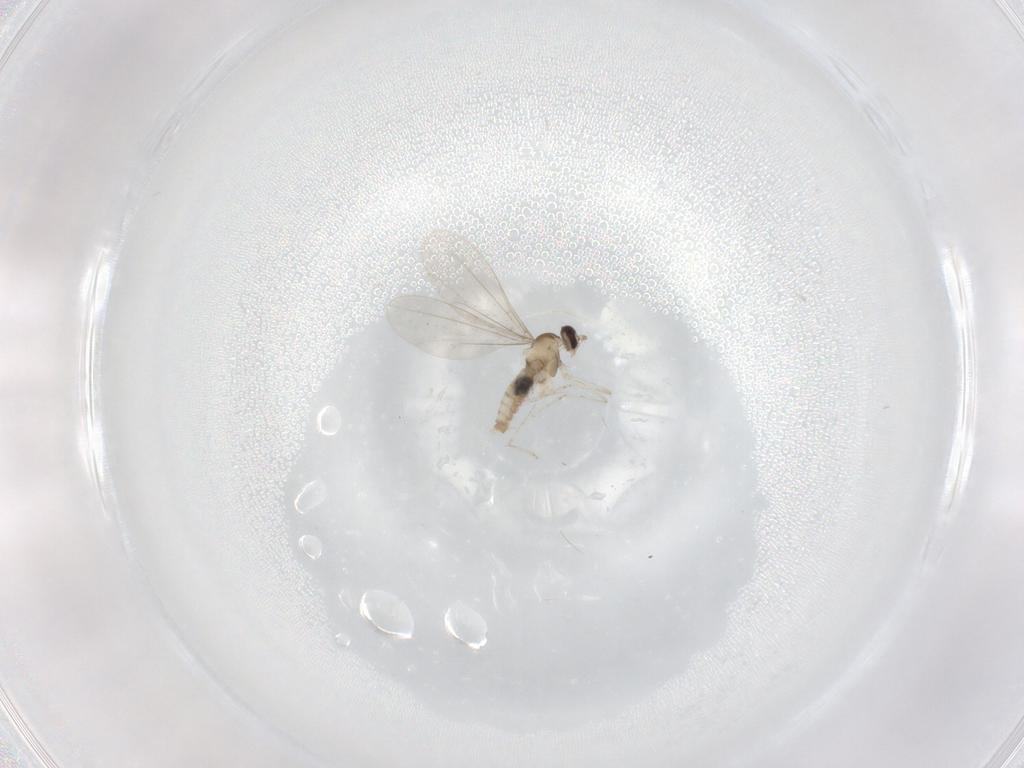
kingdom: Animalia
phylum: Arthropoda
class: Insecta
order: Diptera
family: Cecidomyiidae
